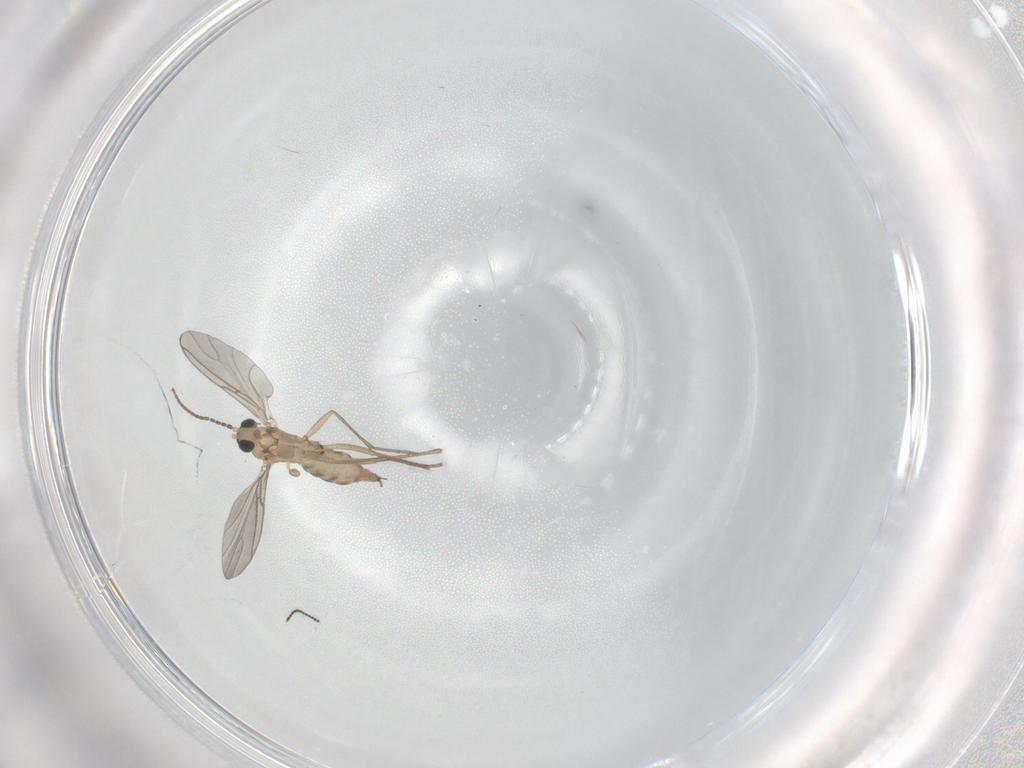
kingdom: Animalia
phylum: Arthropoda
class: Insecta
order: Diptera
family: Sciaridae
